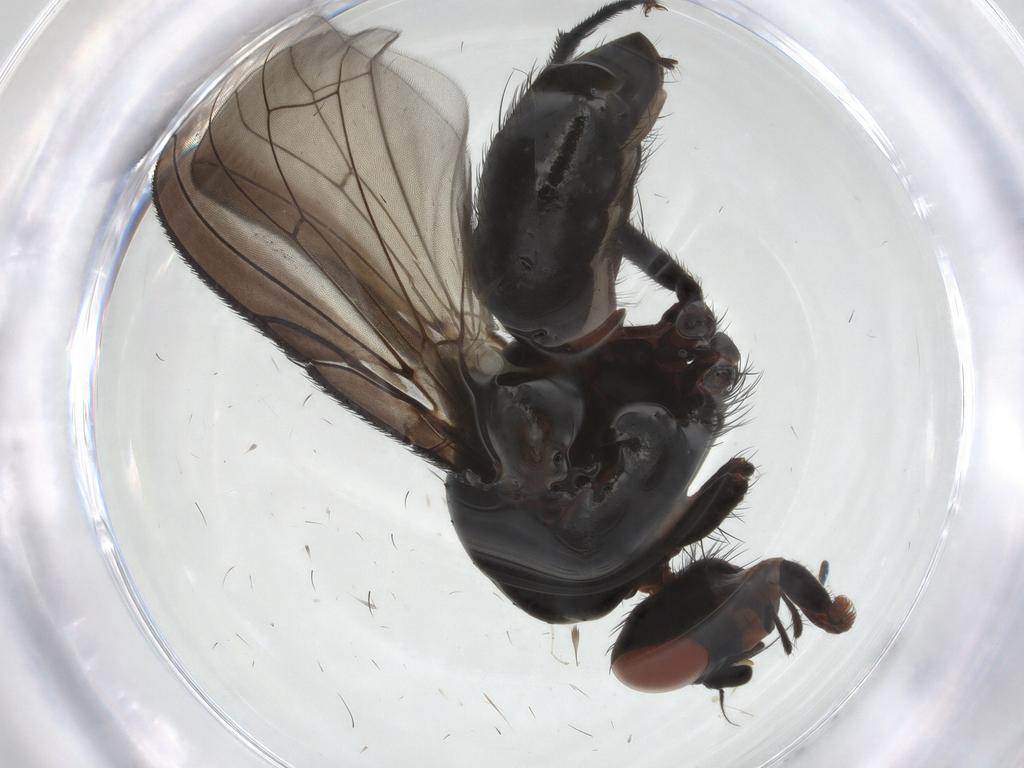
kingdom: Animalia
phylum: Arthropoda
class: Insecta
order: Diptera
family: Anthomyiidae
